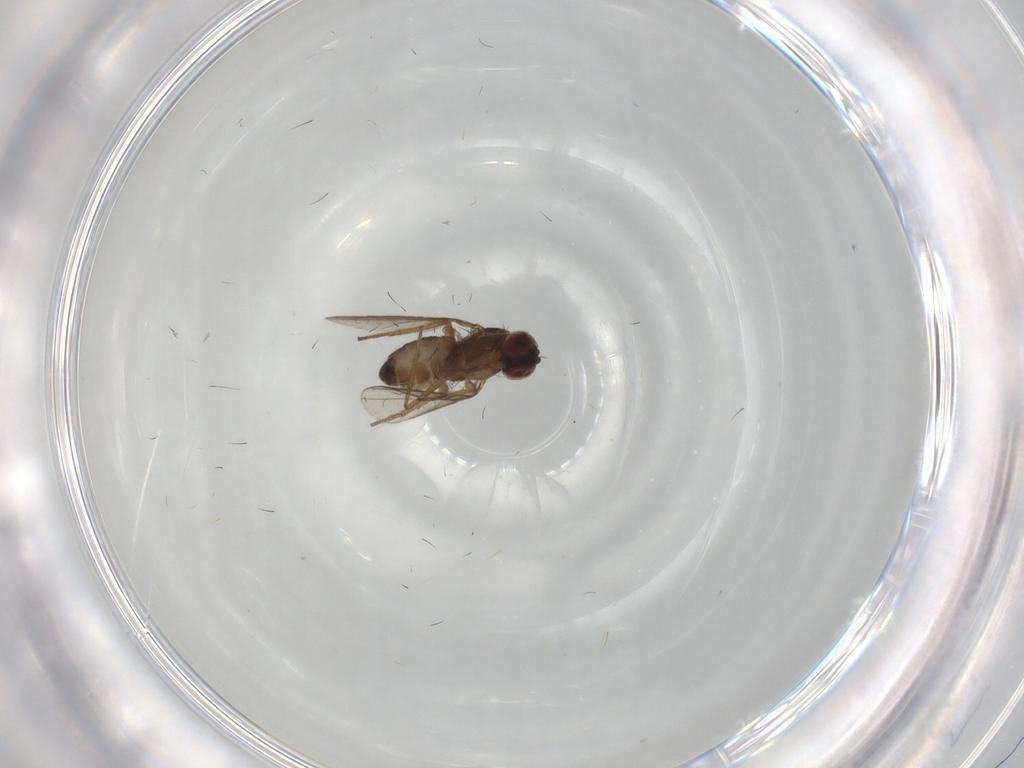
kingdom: Animalia
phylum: Arthropoda
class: Insecta
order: Diptera
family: Dolichopodidae
